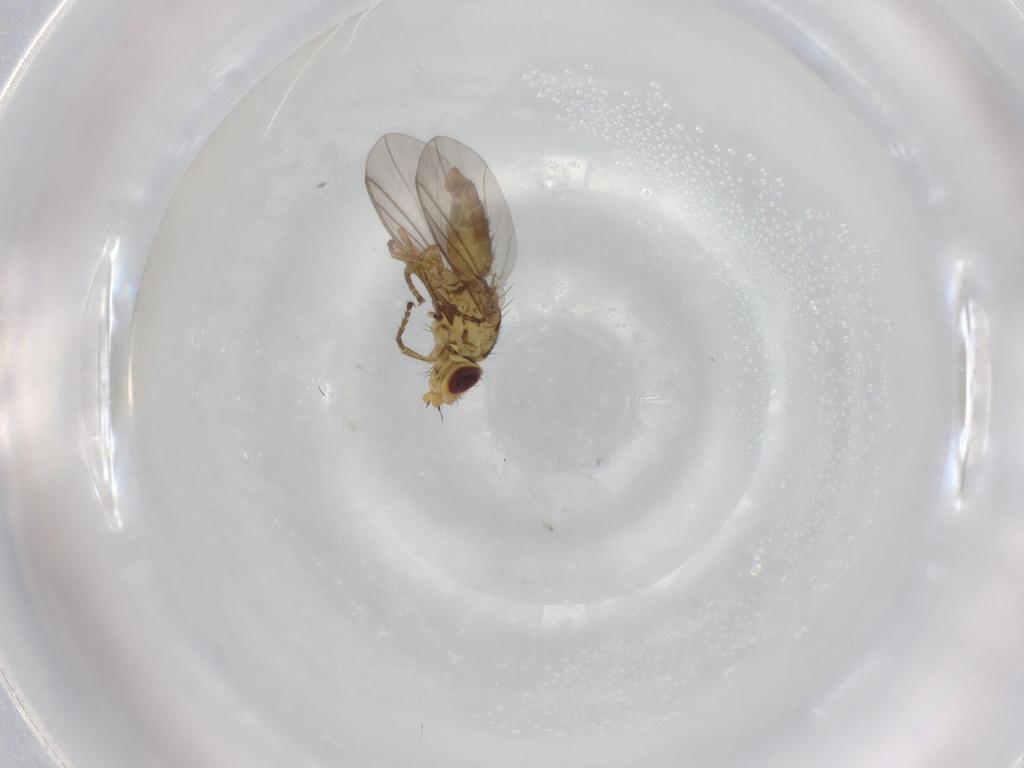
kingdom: Animalia
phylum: Arthropoda
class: Insecta
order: Diptera
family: Agromyzidae
